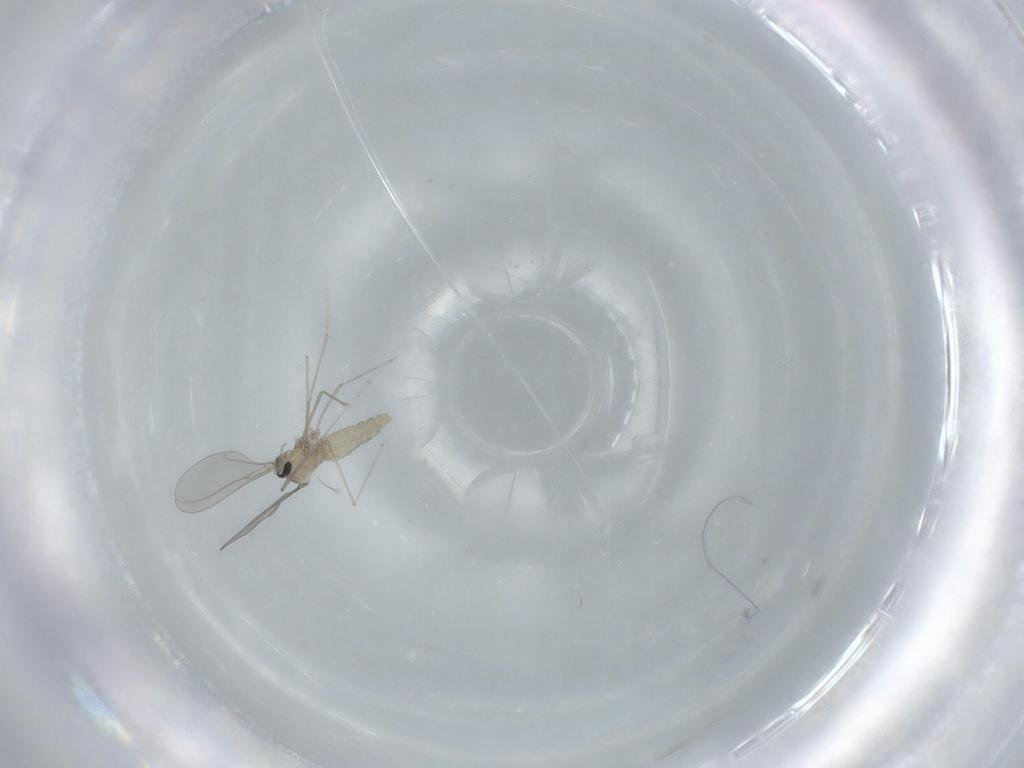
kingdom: Animalia
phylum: Arthropoda
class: Insecta
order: Diptera
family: Cecidomyiidae
